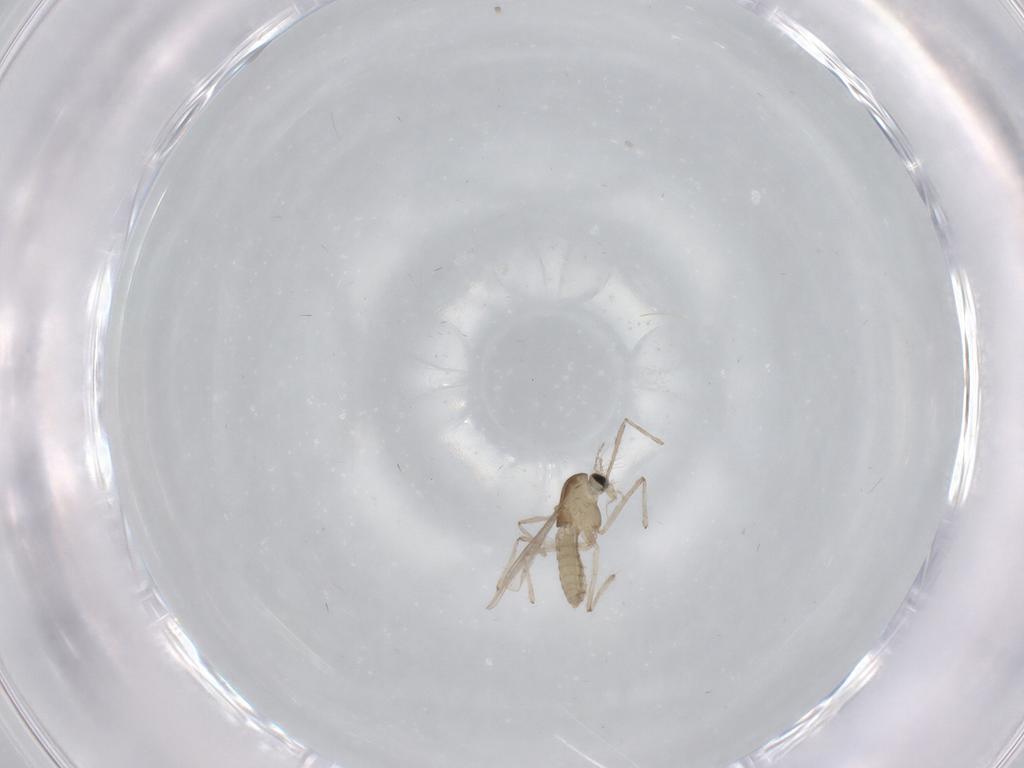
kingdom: Animalia
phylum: Arthropoda
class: Insecta
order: Diptera
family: Chironomidae
